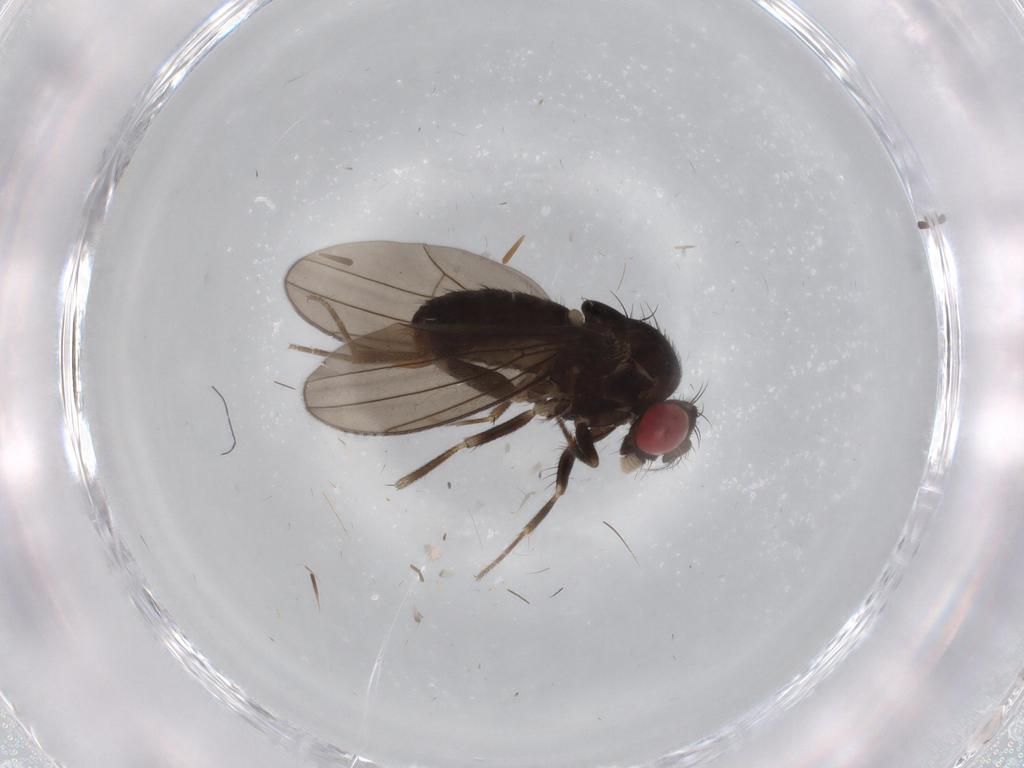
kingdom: Animalia
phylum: Arthropoda
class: Insecta
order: Diptera
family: Drosophilidae
